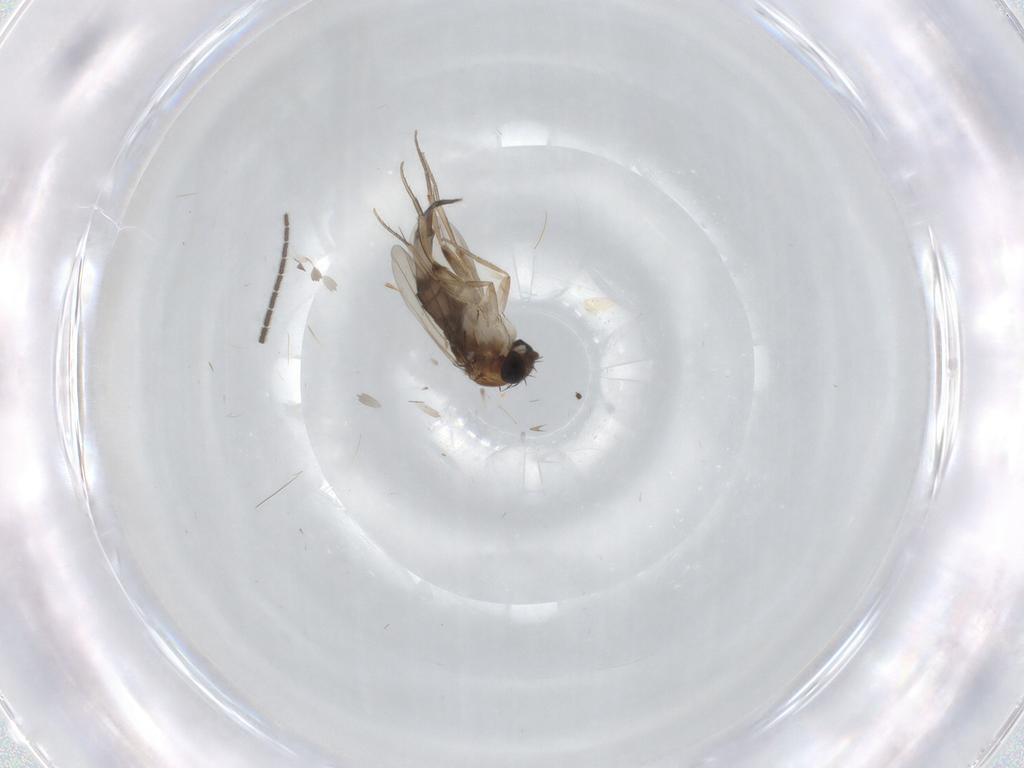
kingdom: Animalia
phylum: Arthropoda
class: Insecta
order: Diptera
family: Phoridae
